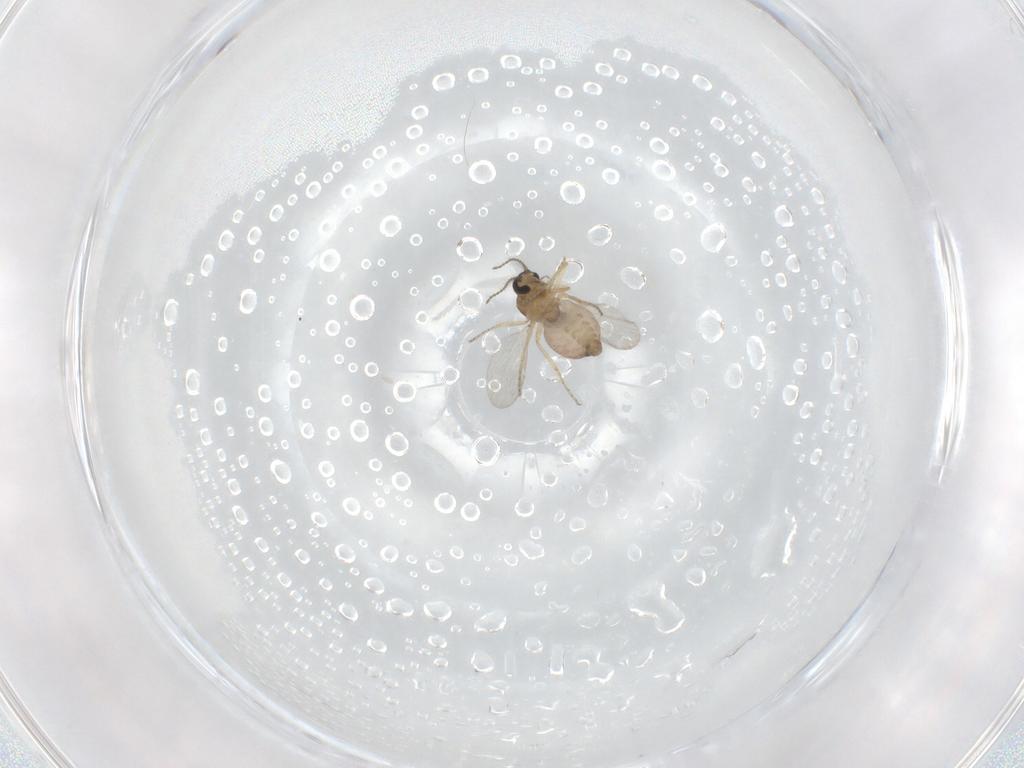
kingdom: Animalia
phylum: Arthropoda
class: Insecta
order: Diptera
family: Ceratopogonidae
